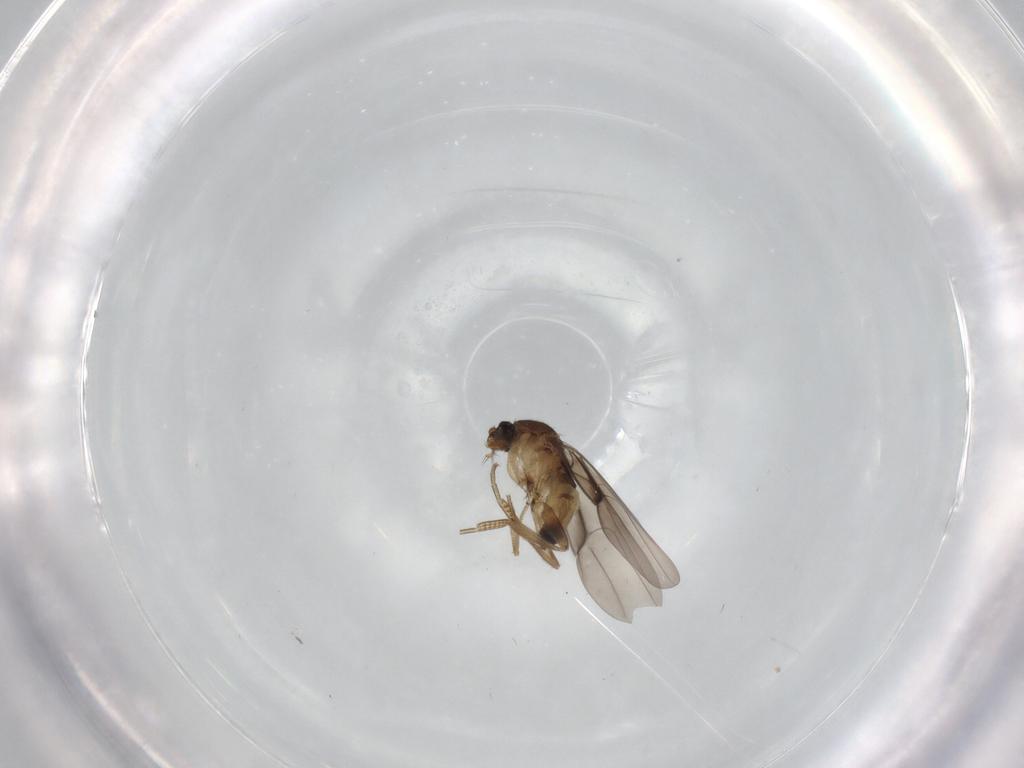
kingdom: Animalia
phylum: Arthropoda
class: Insecta
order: Diptera
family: Phoridae
